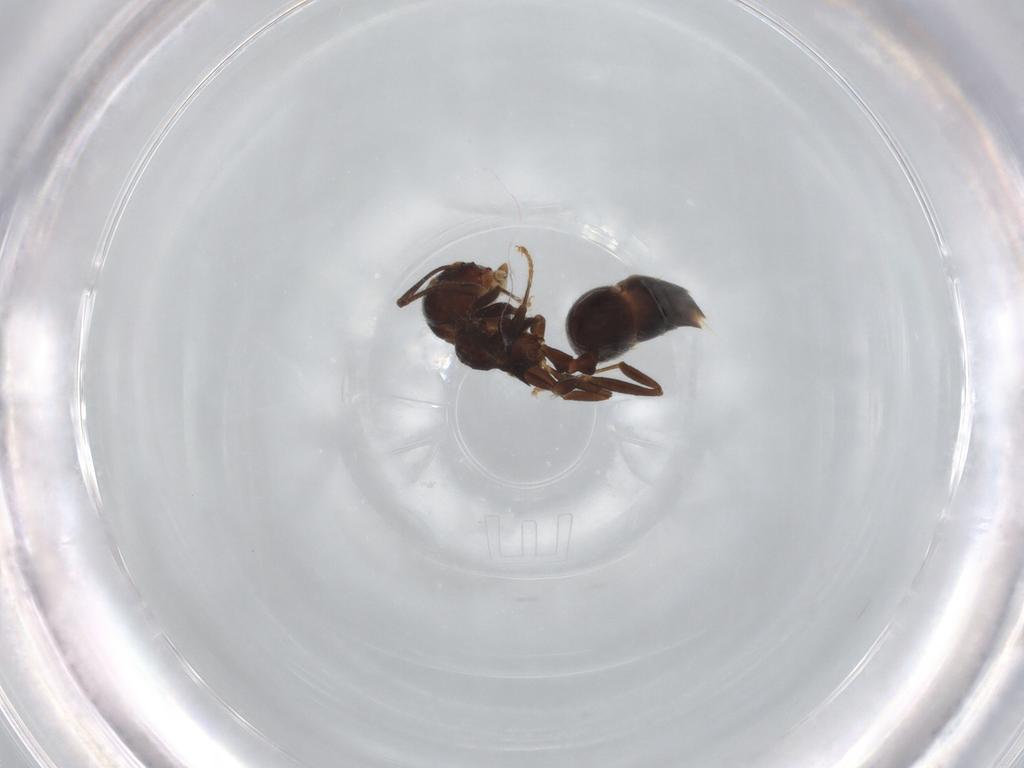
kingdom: Animalia
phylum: Arthropoda
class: Insecta
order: Hymenoptera
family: Formicidae
